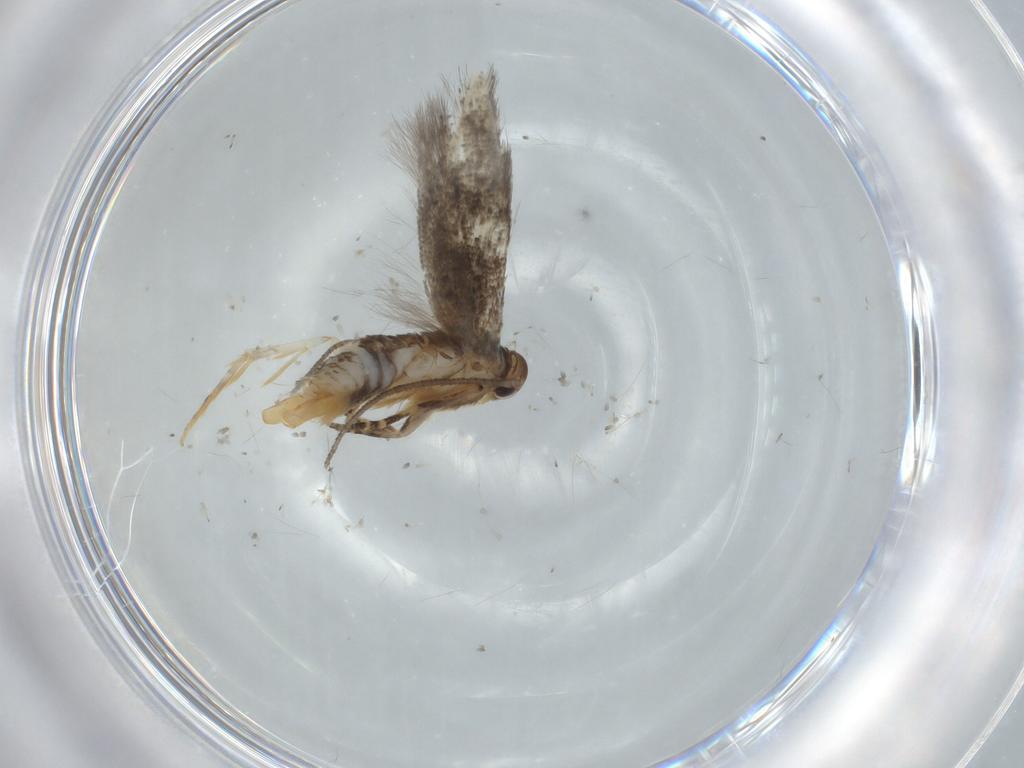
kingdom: Animalia
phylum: Arthropoda
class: Insecta
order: Lepidoptera
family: Elachistidae
